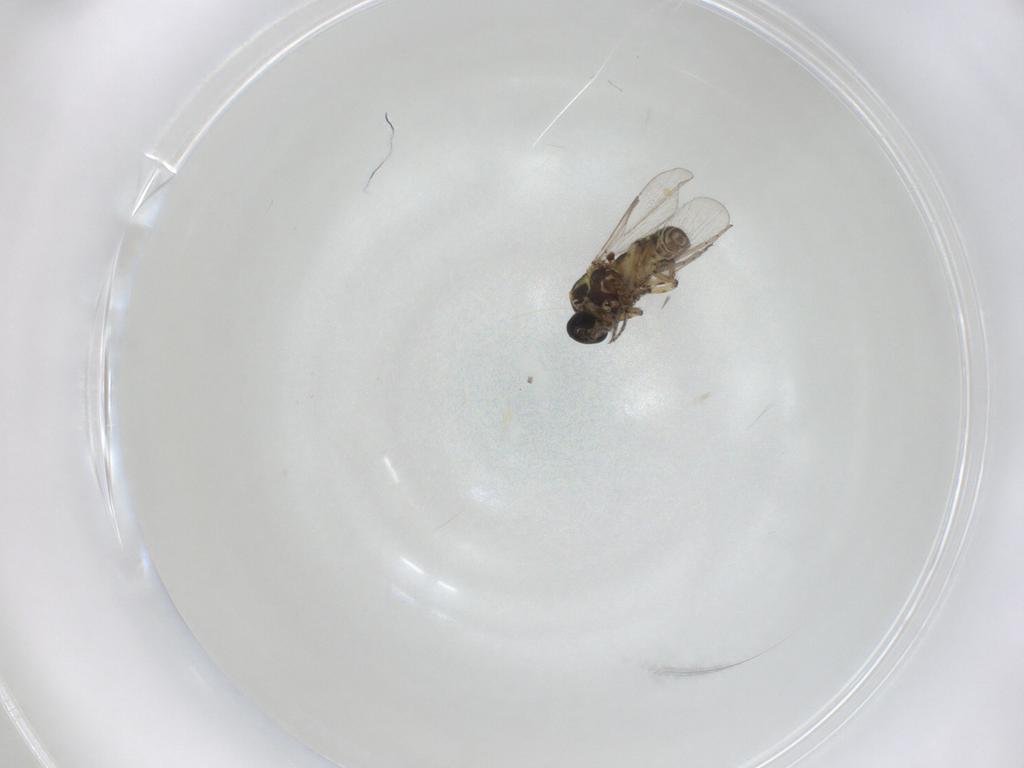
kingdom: Animalia
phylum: Arthropoda
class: Insecta
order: Diptera
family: Ceratopogonidae
